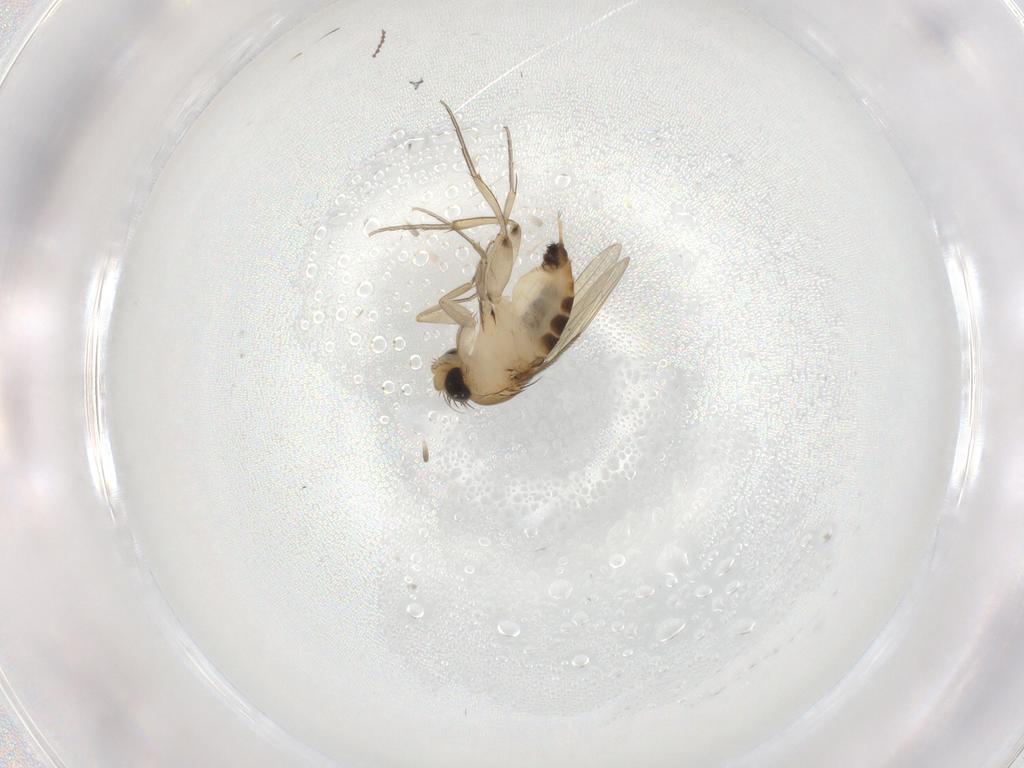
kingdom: Animalia
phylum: Arthropoda
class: Insecta
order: Diptera
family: Phoridae
